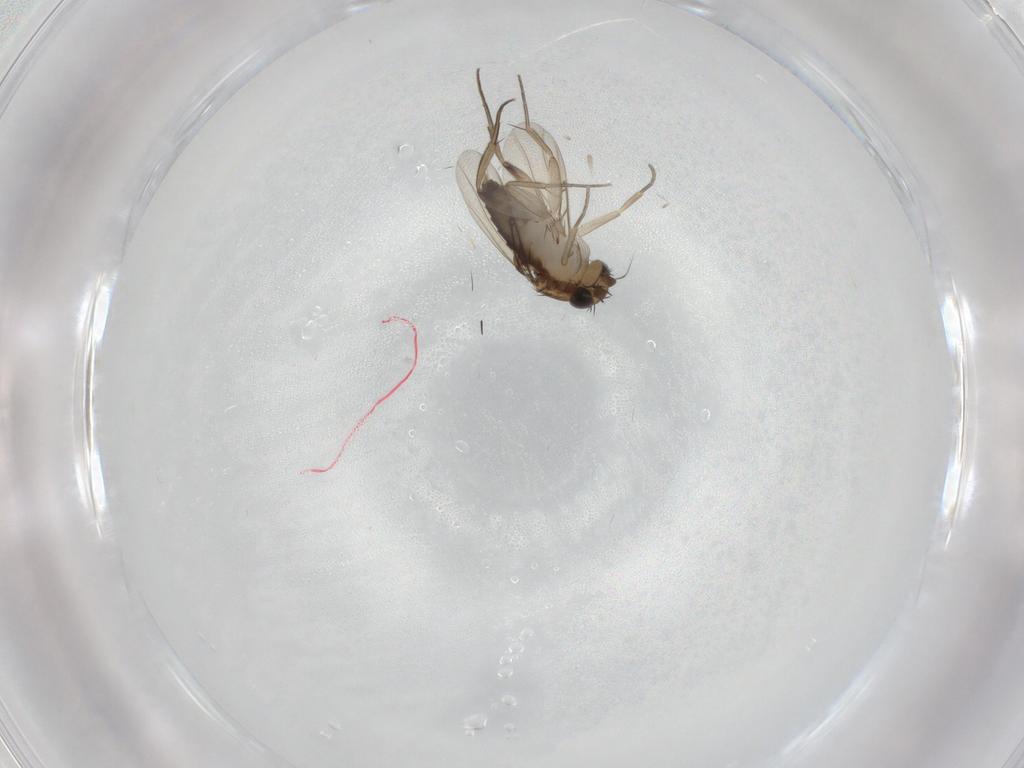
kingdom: Animalia
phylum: Arthropoda
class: Insecta
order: Diptera
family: Phoridae
